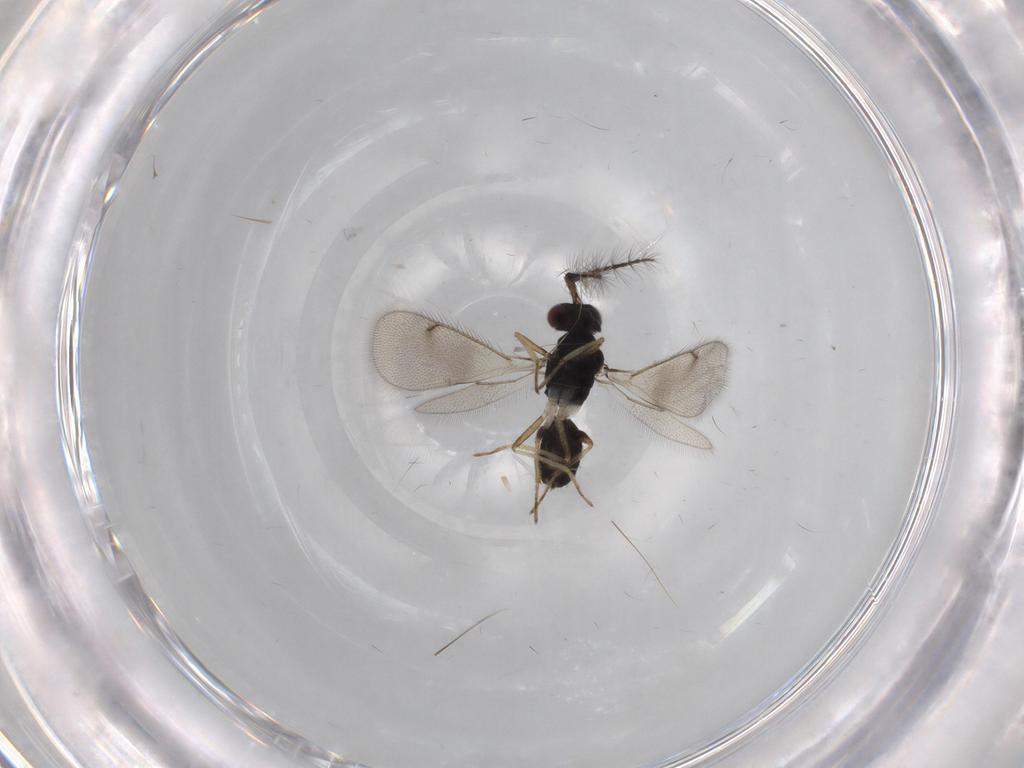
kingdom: Animalia
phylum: Arthropoda
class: Insecta
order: Hymenoptera
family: Eulophidae
